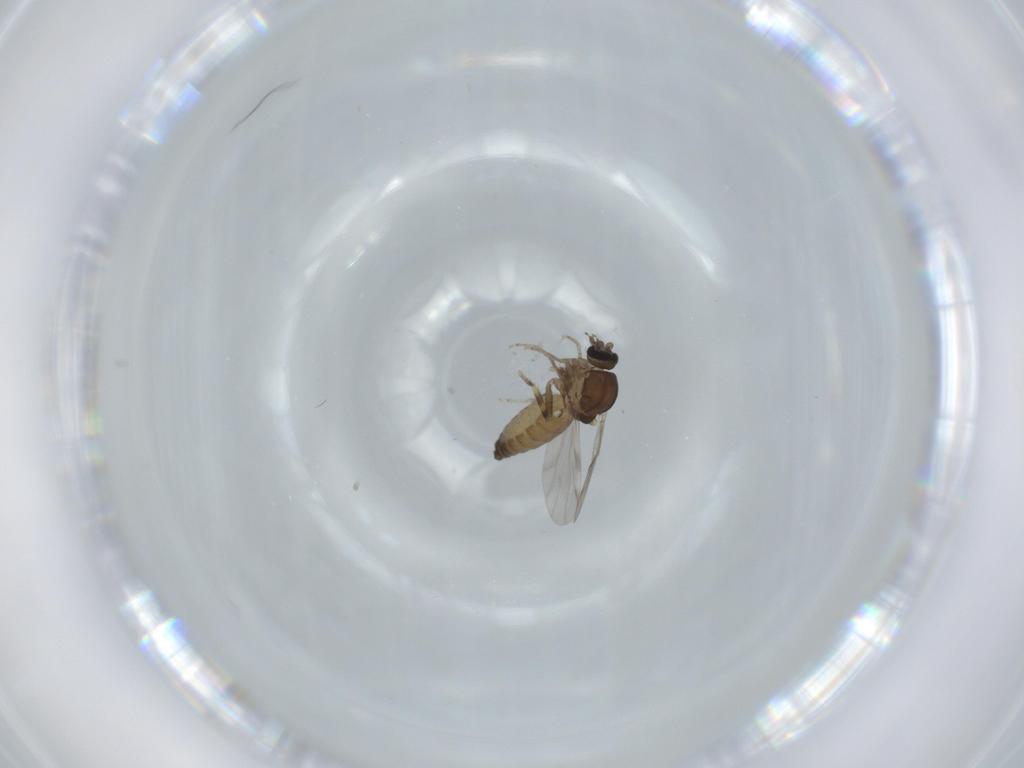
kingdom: Animalia
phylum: Arthropoda
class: Insecta
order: Diptera
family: Ceratopogonidae
